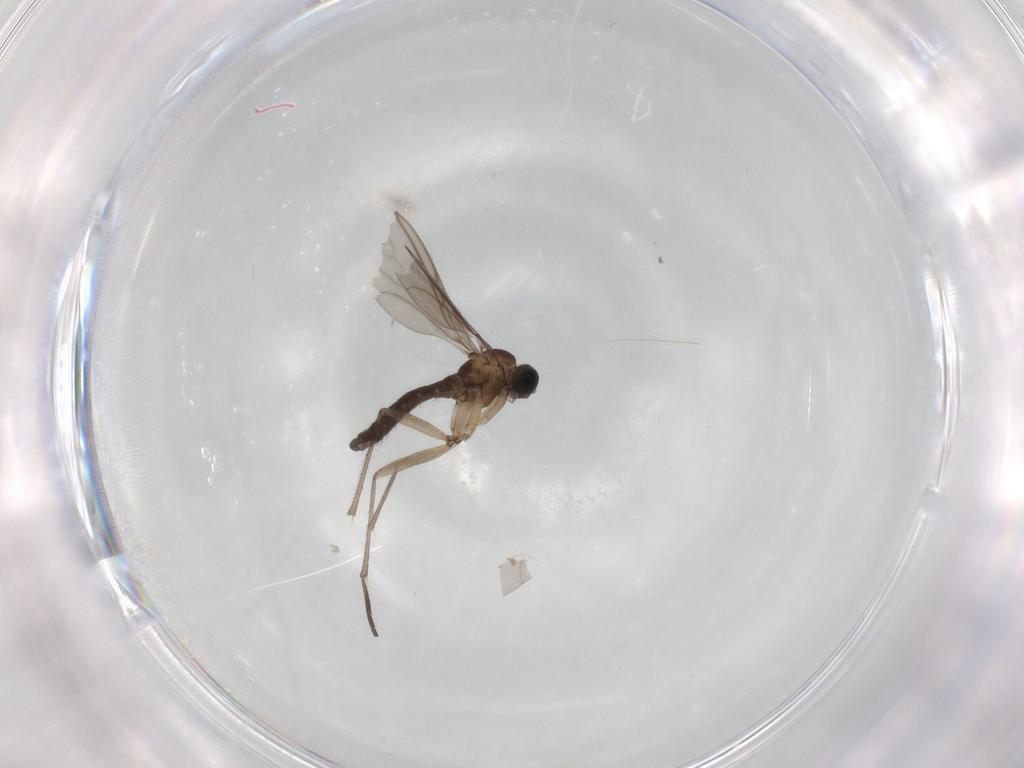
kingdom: Animalia
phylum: Arthropoda
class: Insecta
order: Diptera
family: Sciaridae
